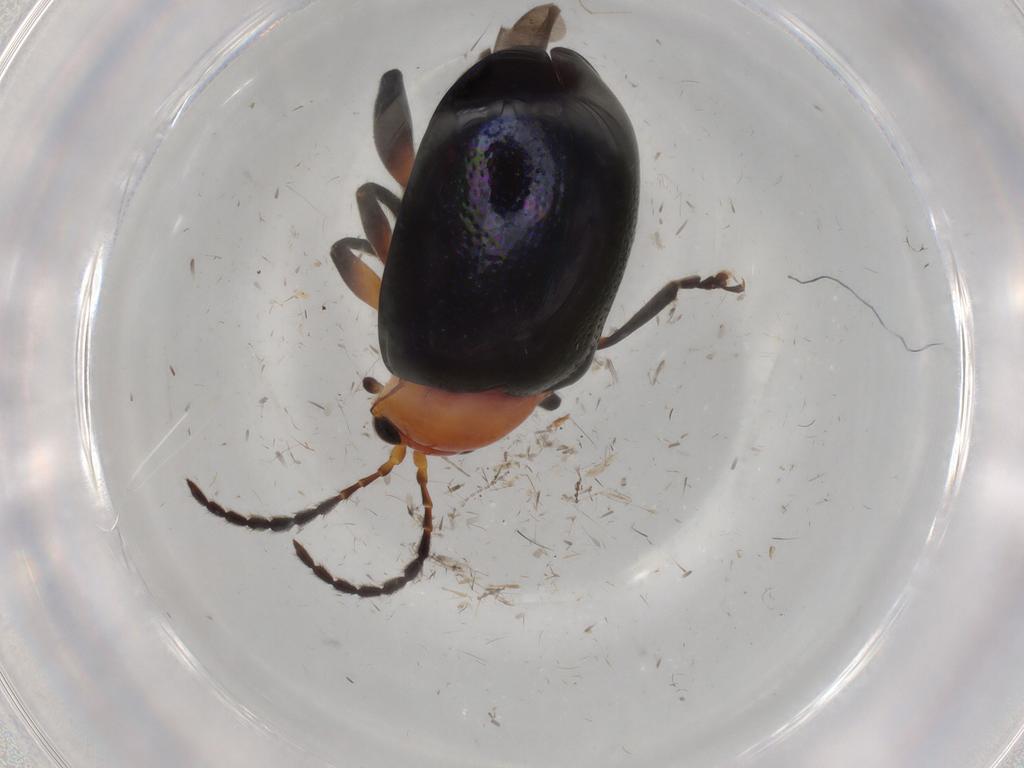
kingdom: Animalia
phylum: Arthropoda
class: Insecta
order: Coleoptera
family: Chrysomelidae
